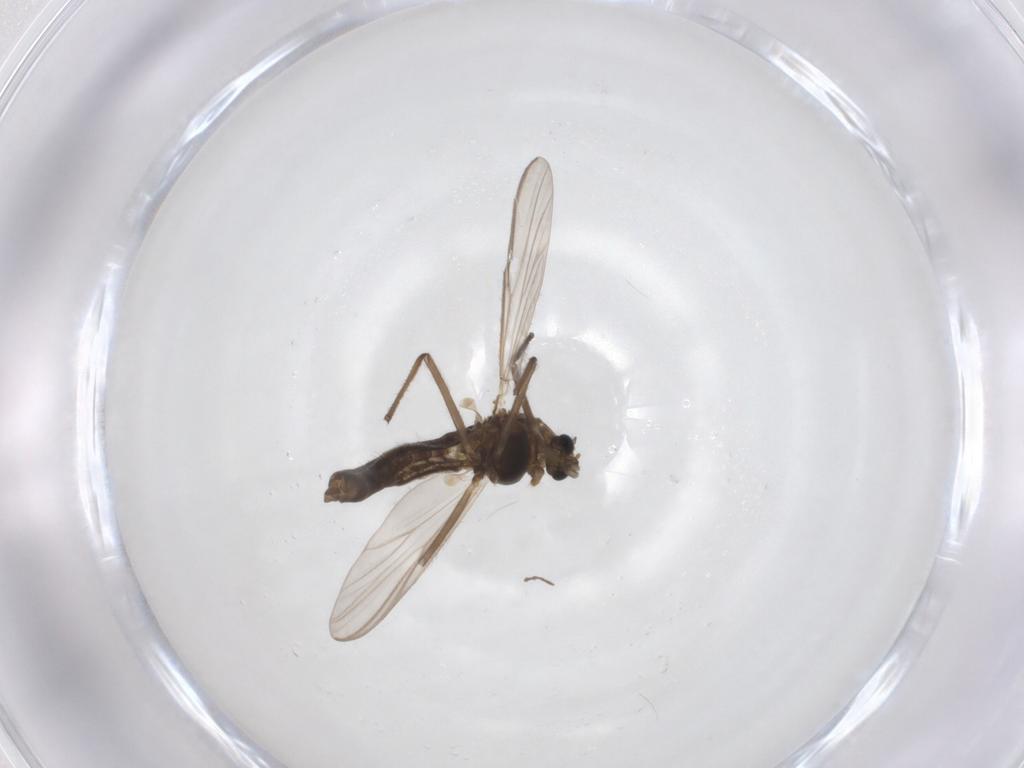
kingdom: Animalia
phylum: Arthropoda
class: Insecta
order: Diptera
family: Chironomidae
